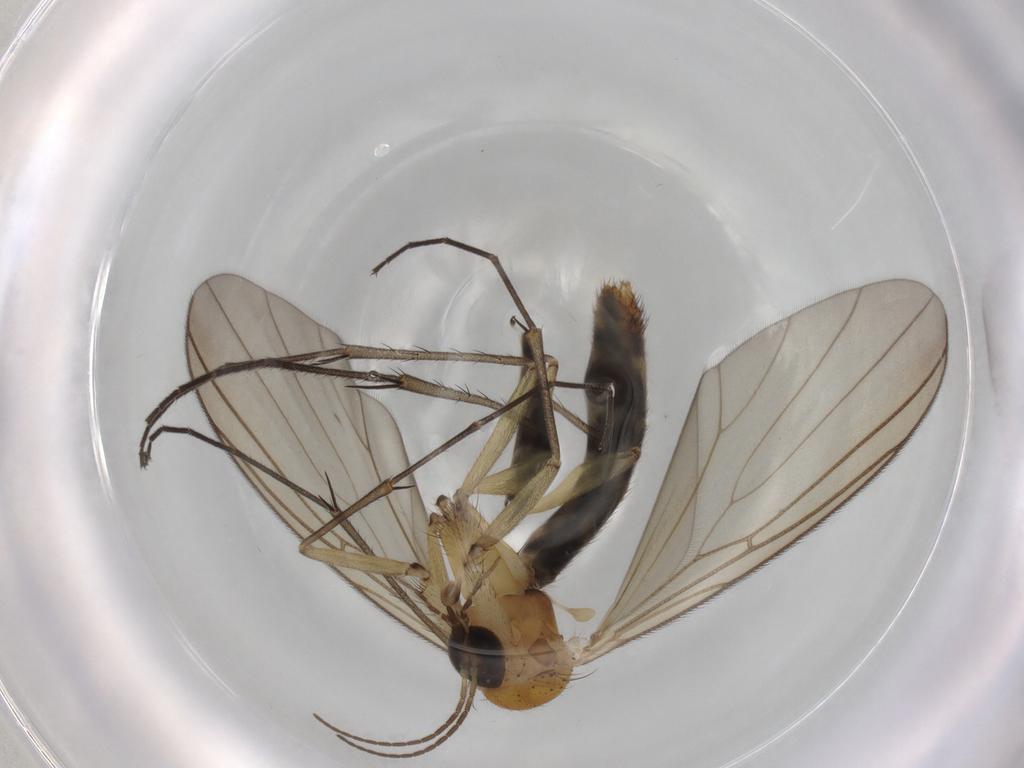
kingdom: Animalia
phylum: Arthropoda
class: Insecta
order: Diptera
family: Mycetophilidae
